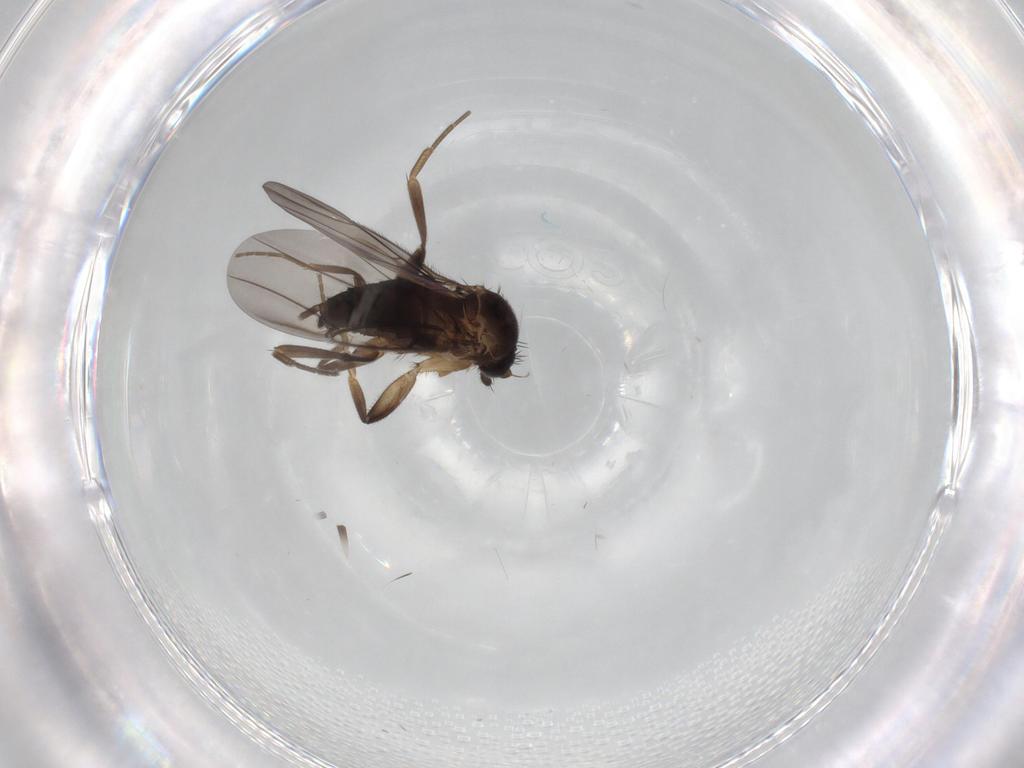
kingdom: Animalia
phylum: Arthropoda
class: Insecta
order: Diptera
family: Phoridae
